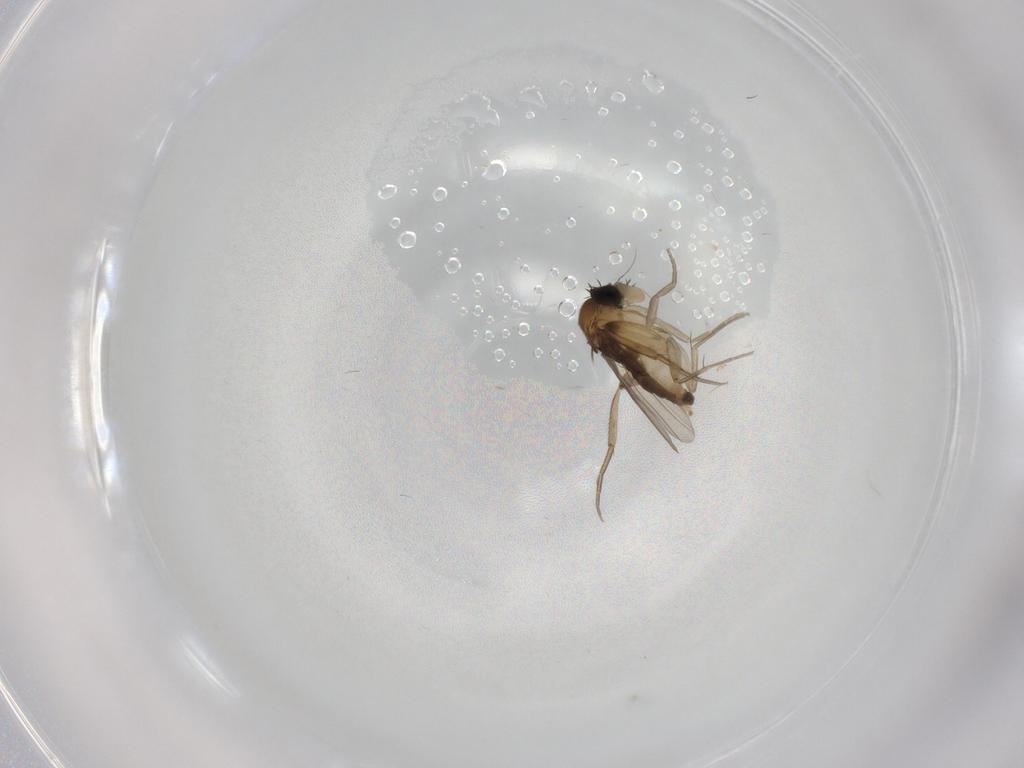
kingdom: Animalia
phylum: Arthropoda
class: Insecta
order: Diptera
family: Phoridae
